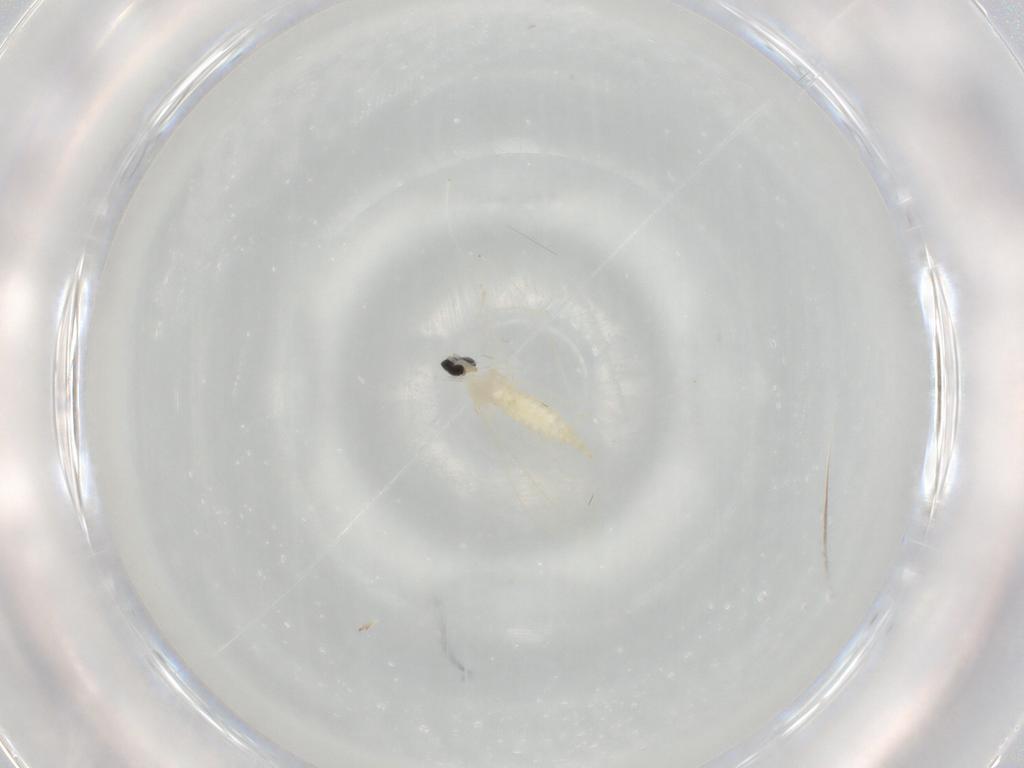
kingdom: Animalia
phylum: Arthropoda
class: Insecta
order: Diptera
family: Cecidomyiidae
